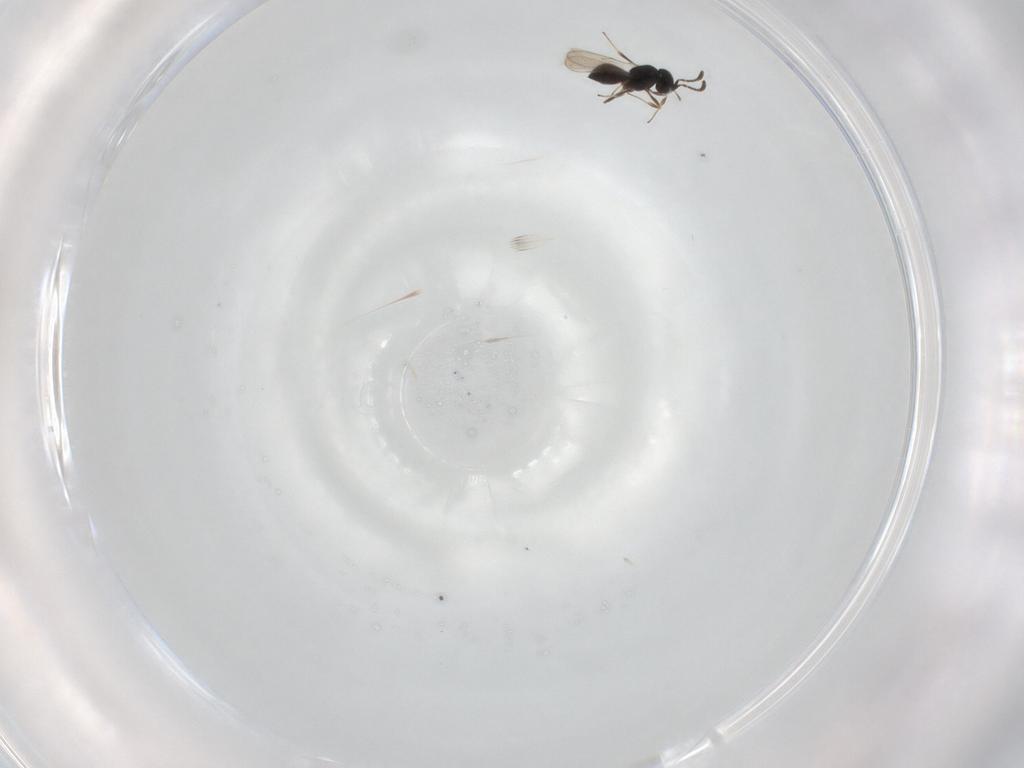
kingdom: Animalia
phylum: Arthropoda
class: Insecta
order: Hymenoptera
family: Scelionidae
